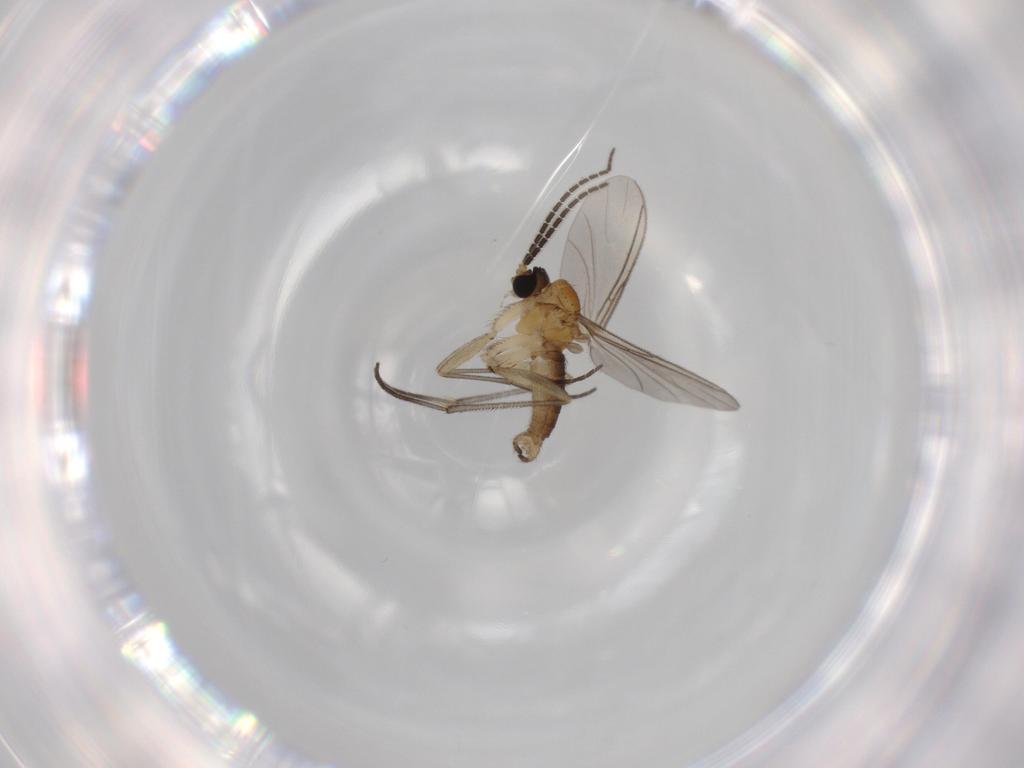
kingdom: Animalia
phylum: Arthropoda
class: Insecta
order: Diptera
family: Sciaridae
